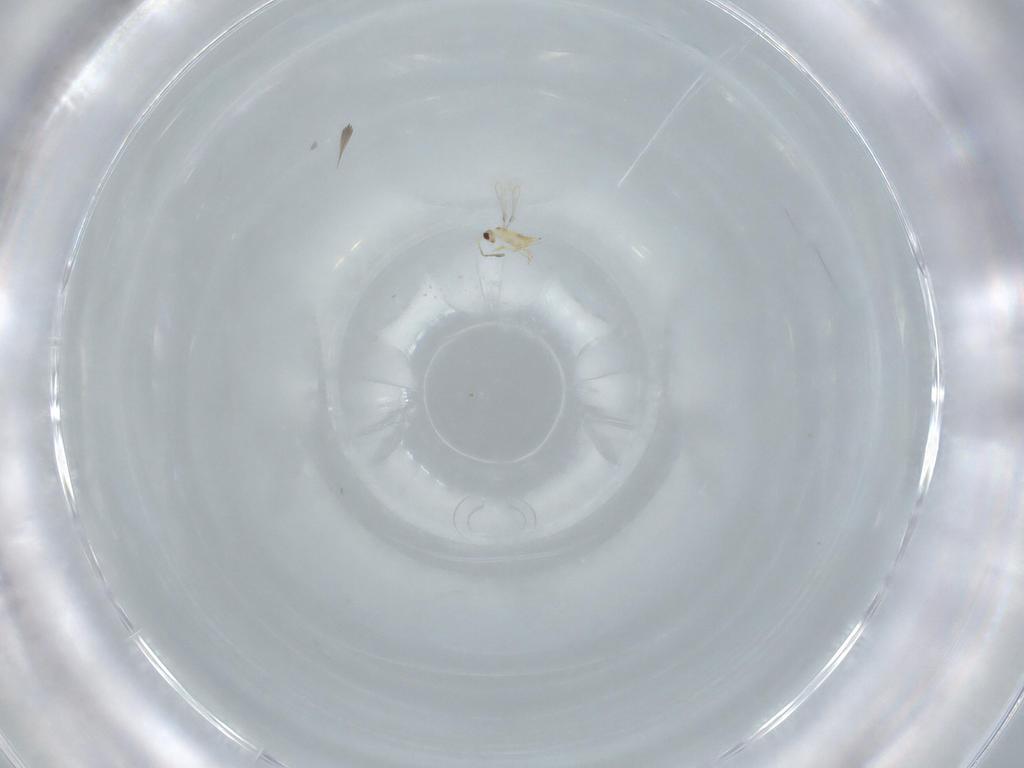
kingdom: Animalia
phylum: Arthropoda
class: Insecta
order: Hymenoptera
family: Mymaridae
